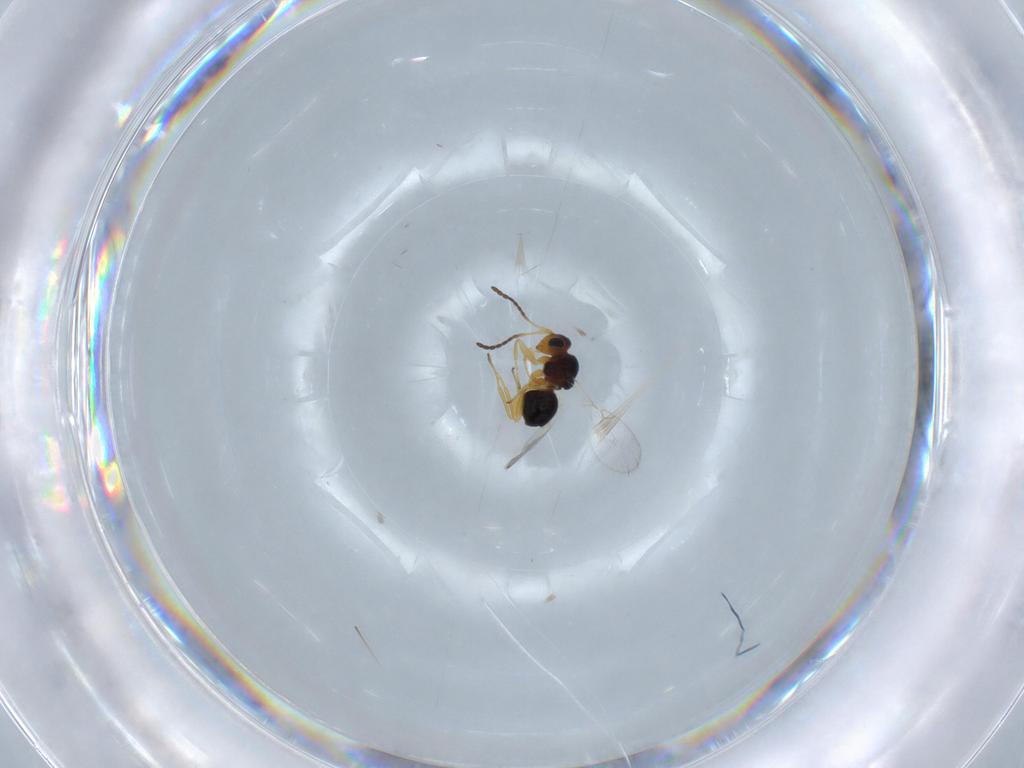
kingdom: Animalia
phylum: Arthropoda
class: Insecta
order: Hymenoptera
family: Figitidae
